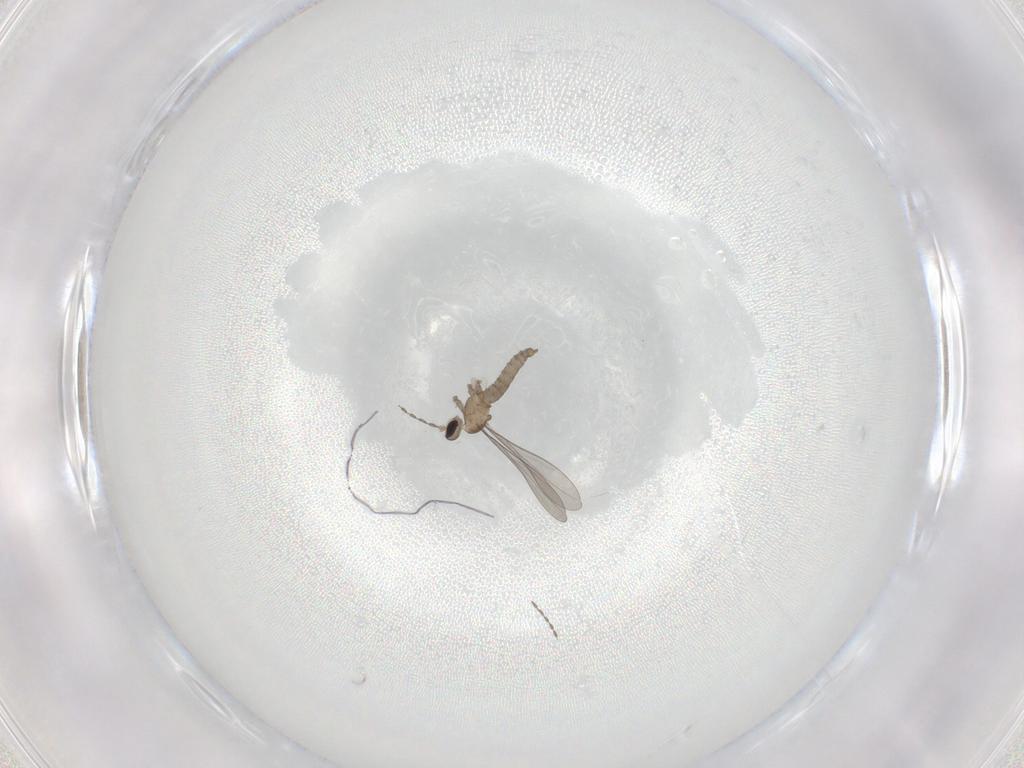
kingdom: Animalia
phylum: Arthropoda
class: Insecta
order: Diptera
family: Cecidomyiidae
